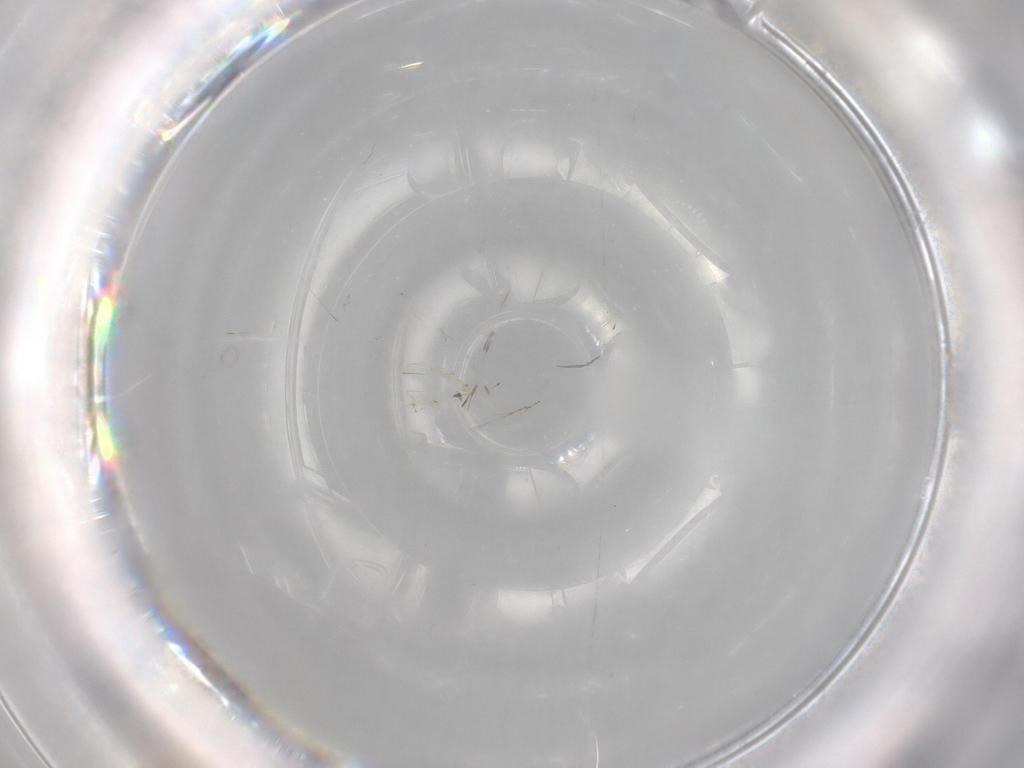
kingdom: Animalia
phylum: Arthropoda
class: Insecta
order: Diptera
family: Cecidomyiidae
